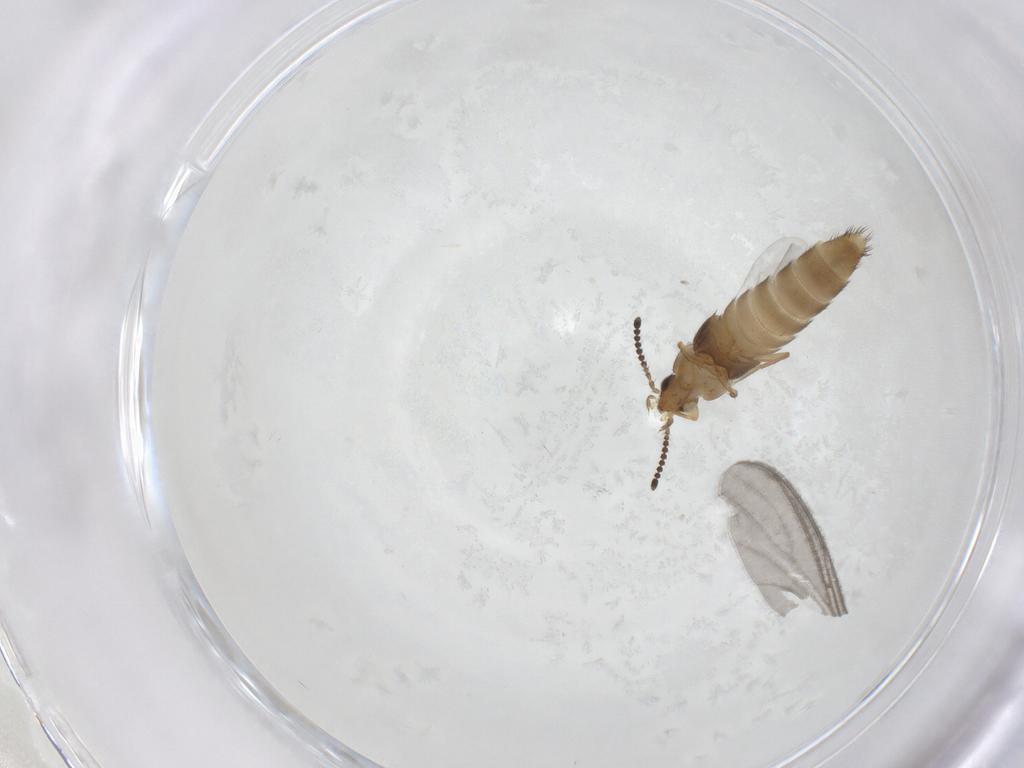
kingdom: Animalia
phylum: Arthropoda
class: Insecta
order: Coleoptera
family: Staphylinidae
